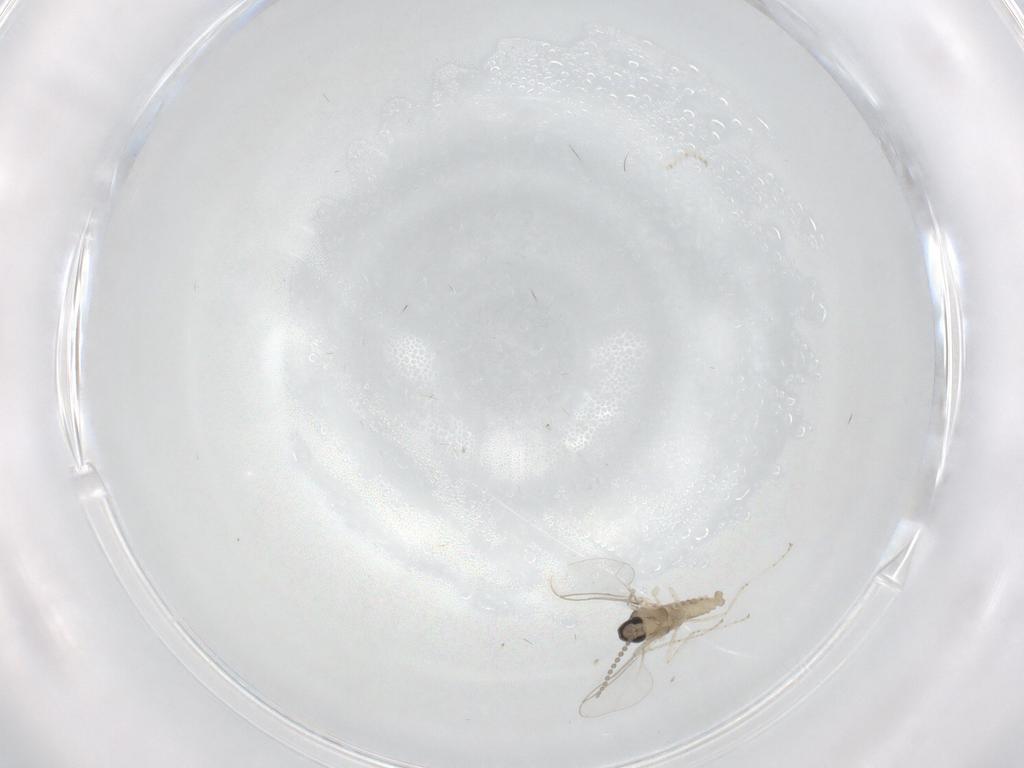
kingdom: Animalia
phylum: Arthropoda
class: Insecta
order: Diptera
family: Cecidomyiidae
